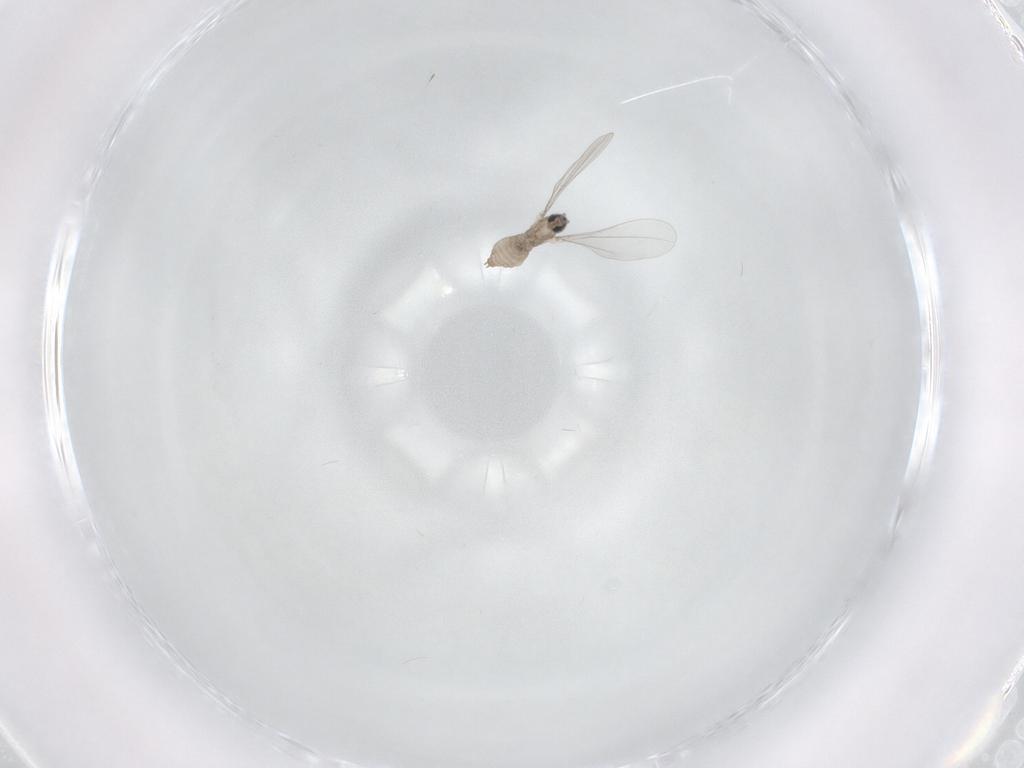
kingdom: Animalia
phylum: Arthropoda
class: Insecta
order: Diptera
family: Cecidomyiidae
